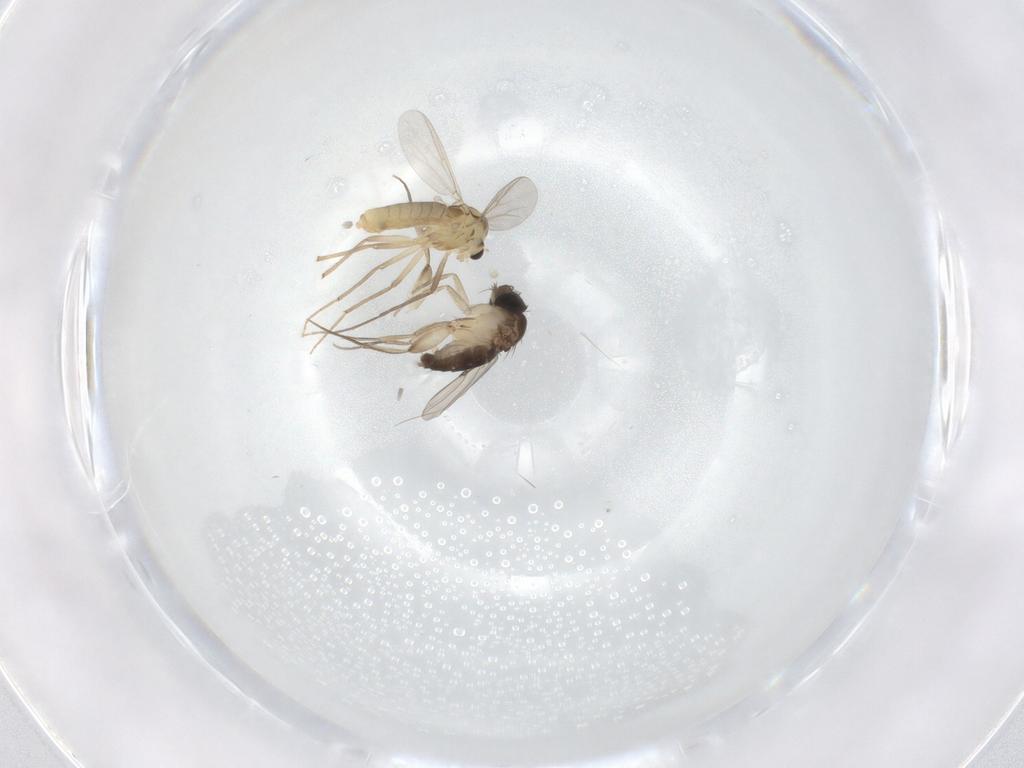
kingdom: Animalia
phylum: Arthropoda
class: Insecta
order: Diptera
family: Chironomidae
